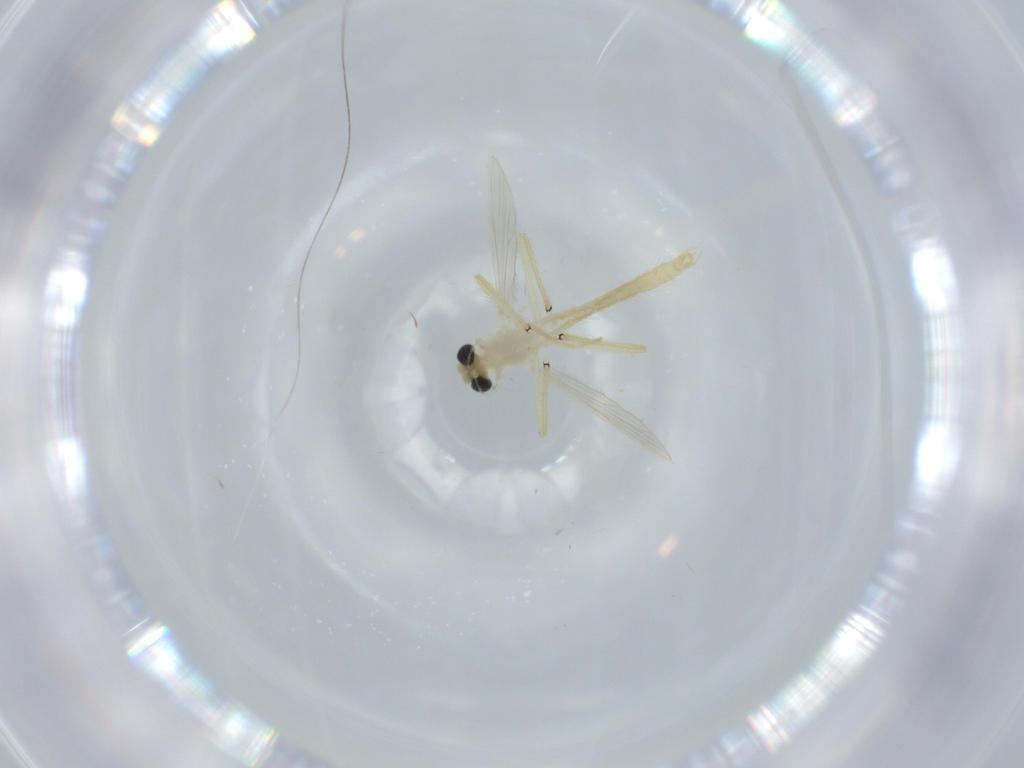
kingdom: Animalia
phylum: Arthropoda
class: Insecta
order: Diptera
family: Chironomidae
